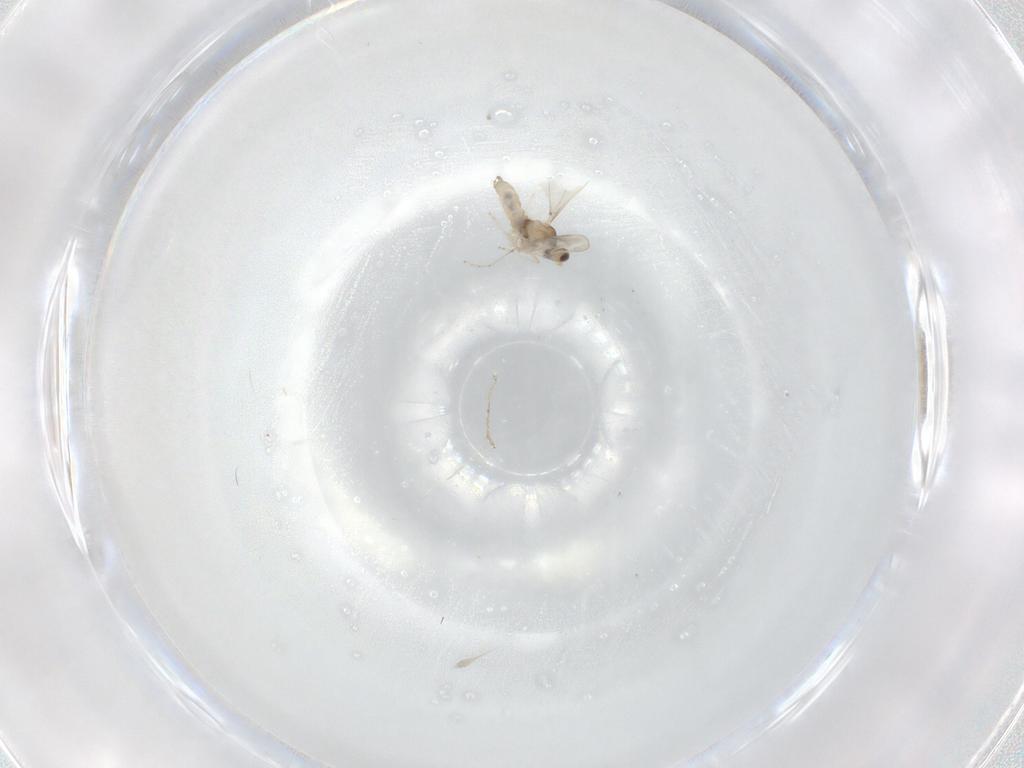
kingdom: Animalia
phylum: Arthropoda
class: Insecta
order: Diptera
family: Cecidomyiidae
